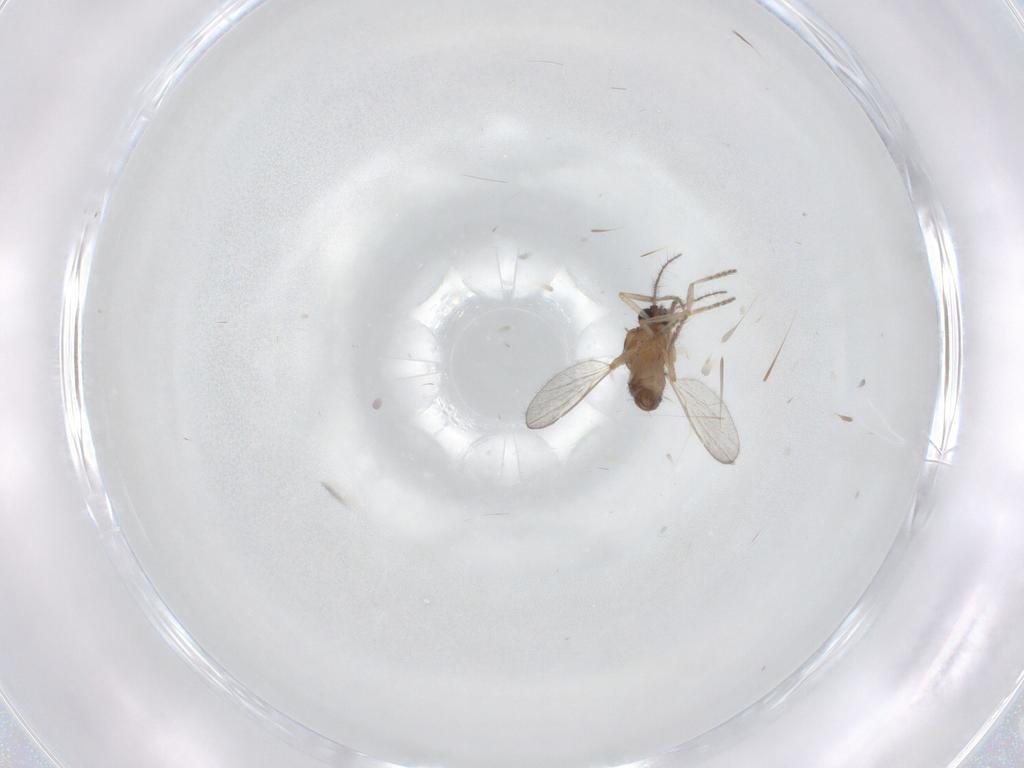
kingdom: Animalia
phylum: Arthropoda
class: Insecta
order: Diptera
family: Ceratopogonidae
